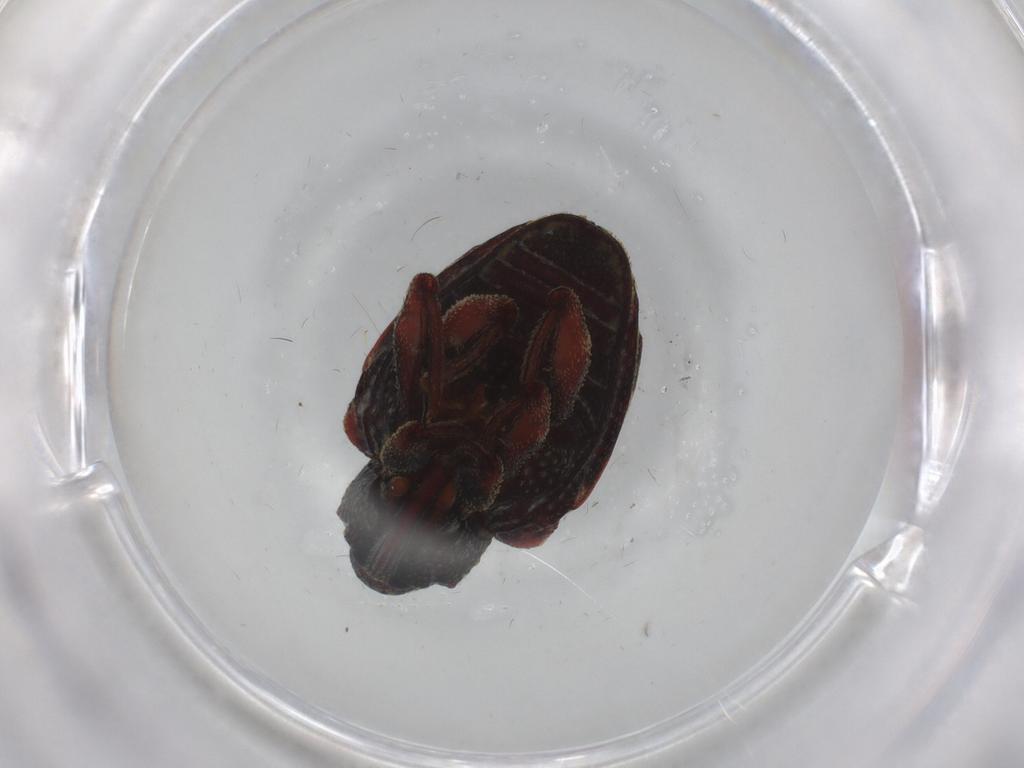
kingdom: Animalia
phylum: Arthropoda
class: Insecta
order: Coleoptera
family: Curculionidae
